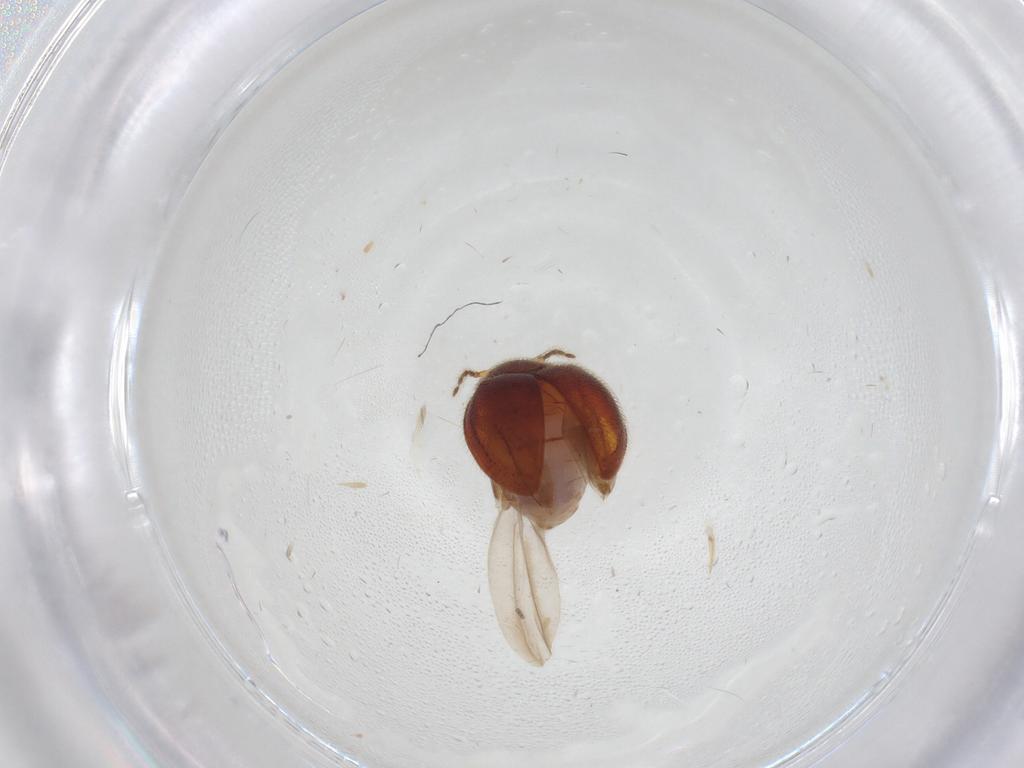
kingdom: Animalia
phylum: Arthropoda
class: Insecta
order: Coleoptera
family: Anamorphidae
